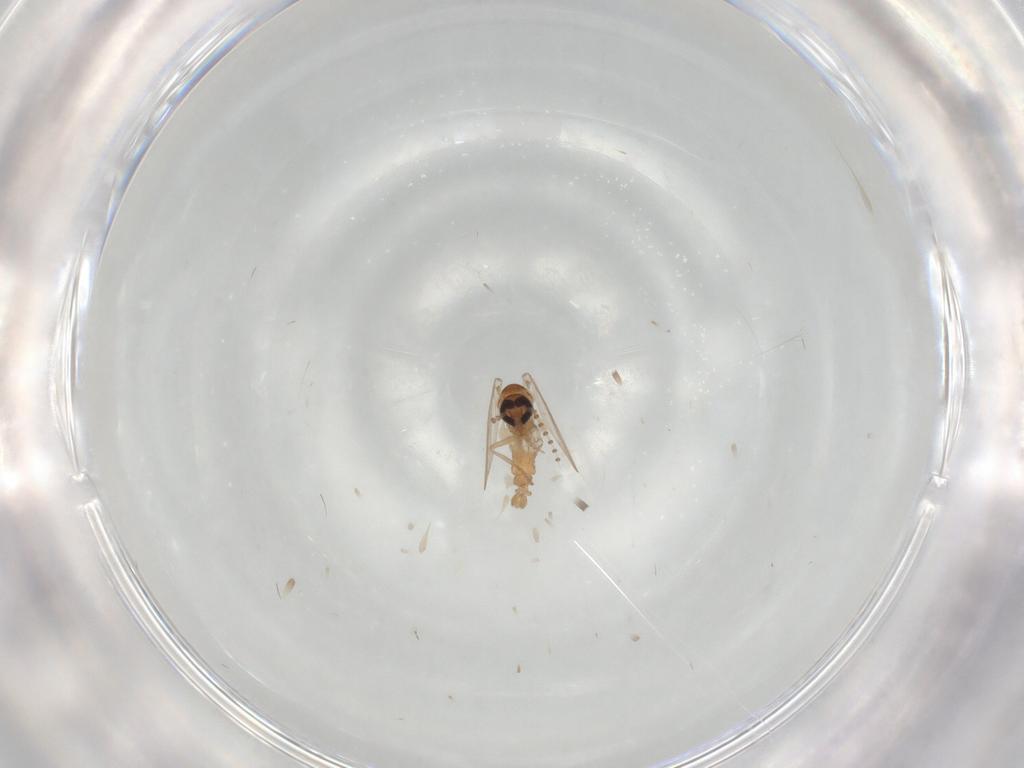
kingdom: Animalia
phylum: Arthropoda
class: Insecta
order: Diptera
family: Psychodidae
